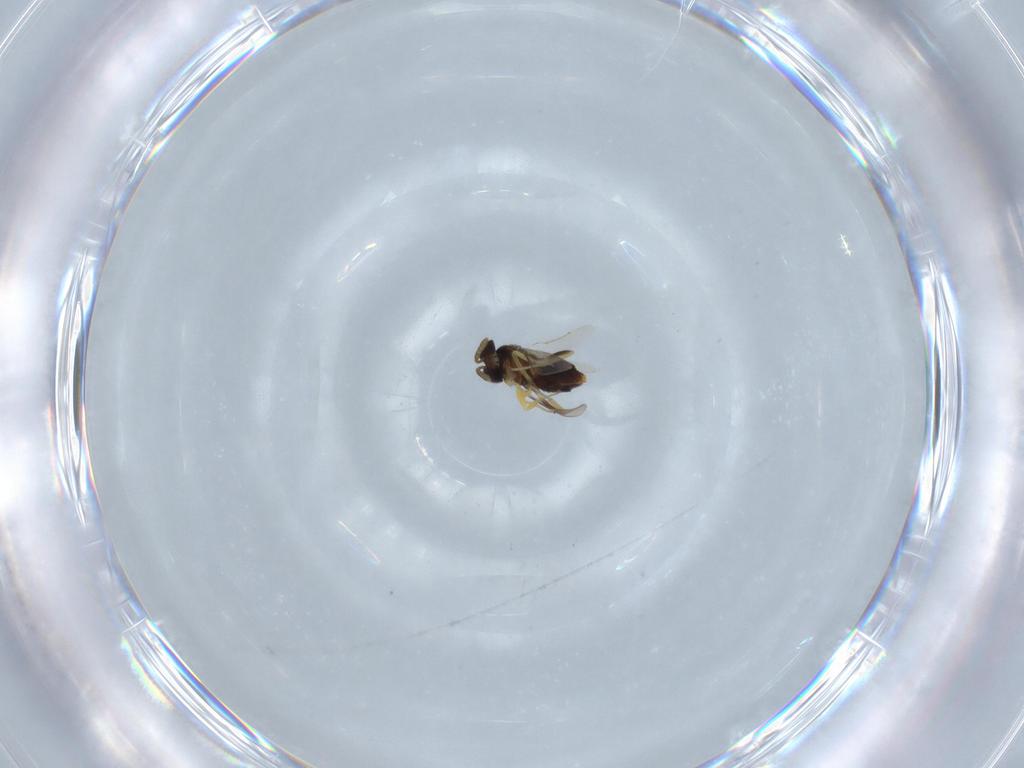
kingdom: Animalia
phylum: Arthropoda
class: Insecta
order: Hymenoptera
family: Aphelinidae
